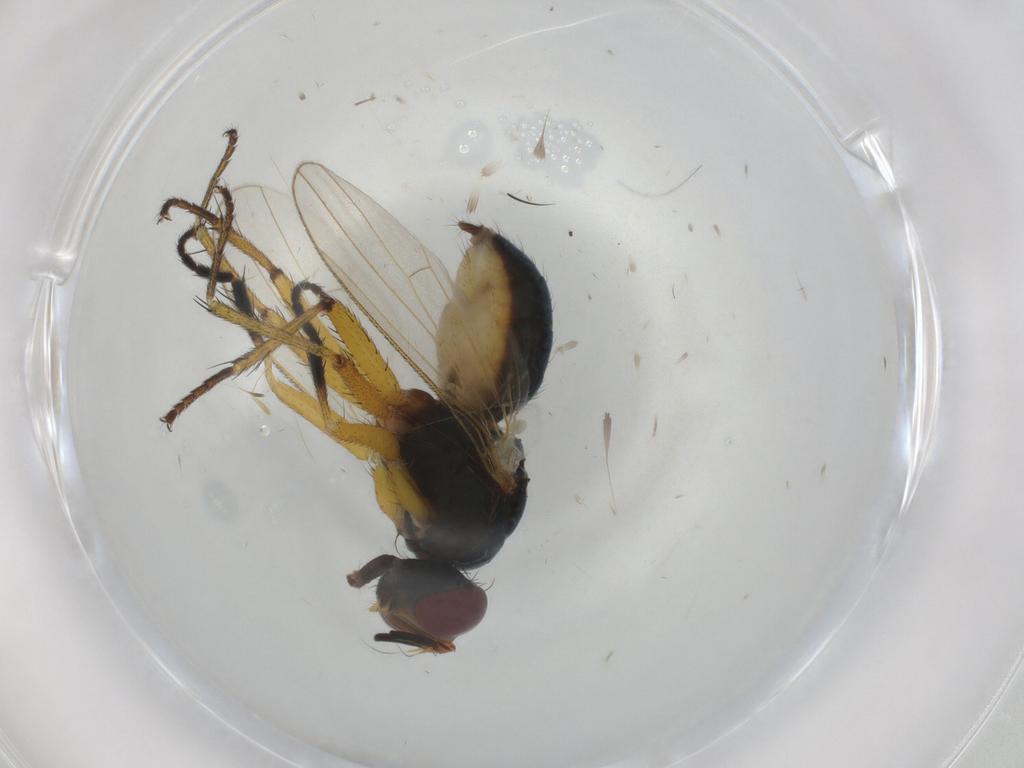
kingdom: Animalia
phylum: Arthropoda
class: Insecta
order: Diptera
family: Muscidae
